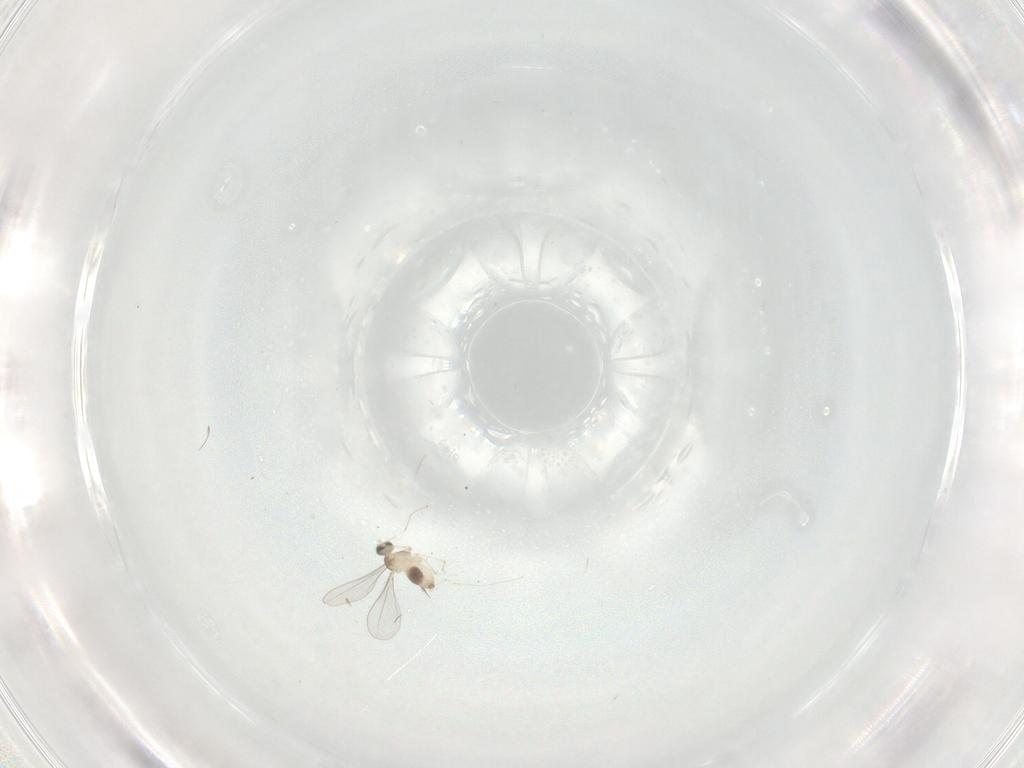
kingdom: Animalia
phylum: Arthropoda
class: Insecta
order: Diptera
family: Cecidomyiidae
